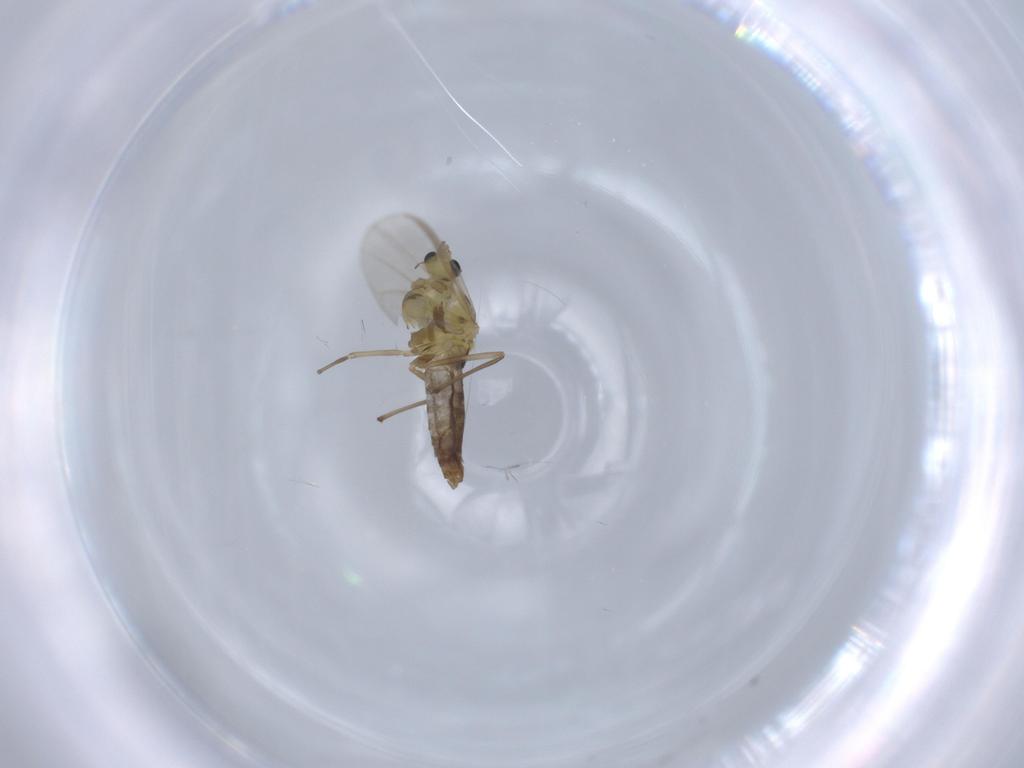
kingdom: Animalia
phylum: Arthropoda
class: Insecta
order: Diptera
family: Chironomidae
